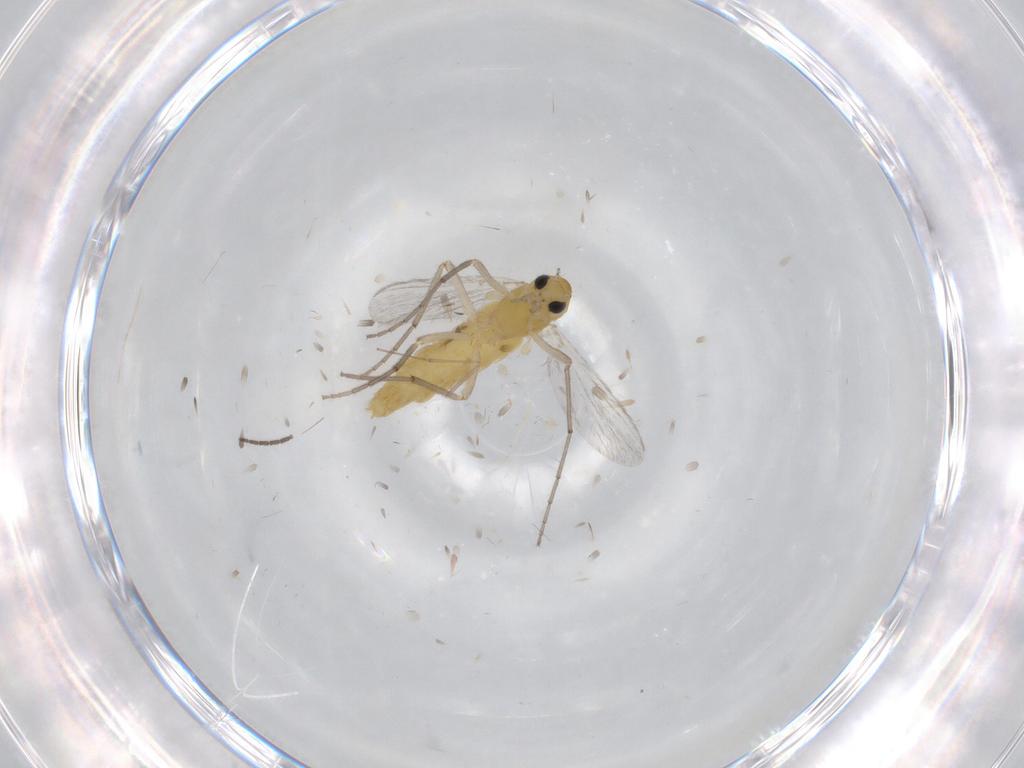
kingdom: Animalia
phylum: Arthropoda
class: Insecta
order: Diptera
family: Chironomidae
